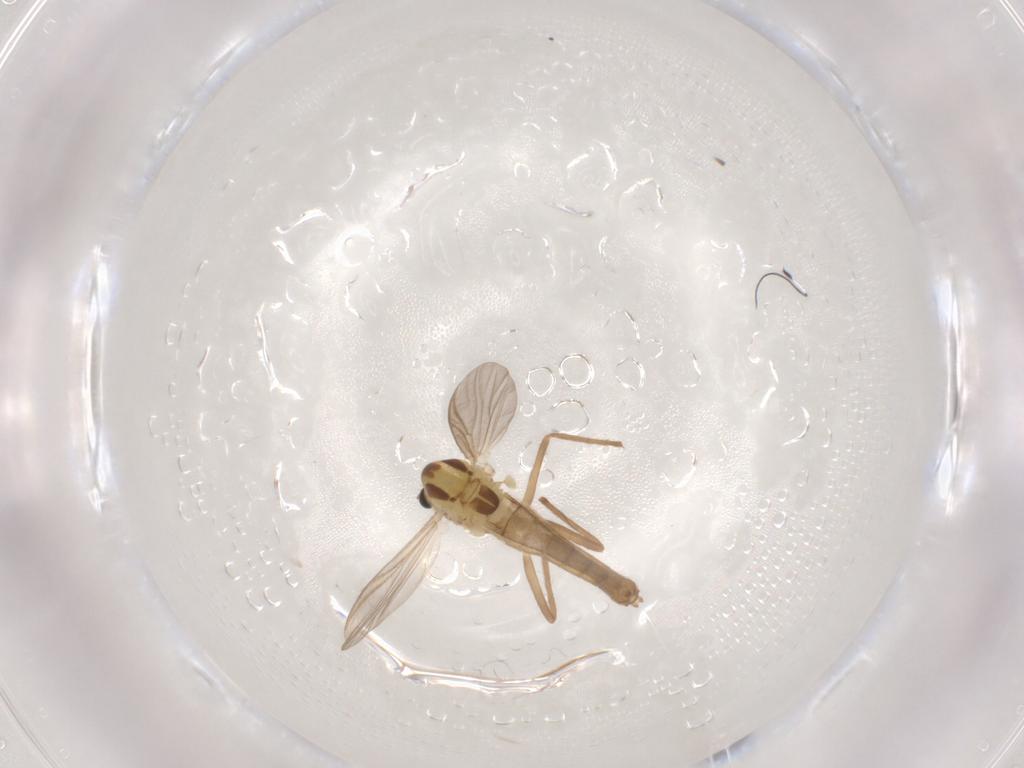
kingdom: Animalia
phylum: Arthropoda
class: Insecta
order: Diptera
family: Chironomidae
